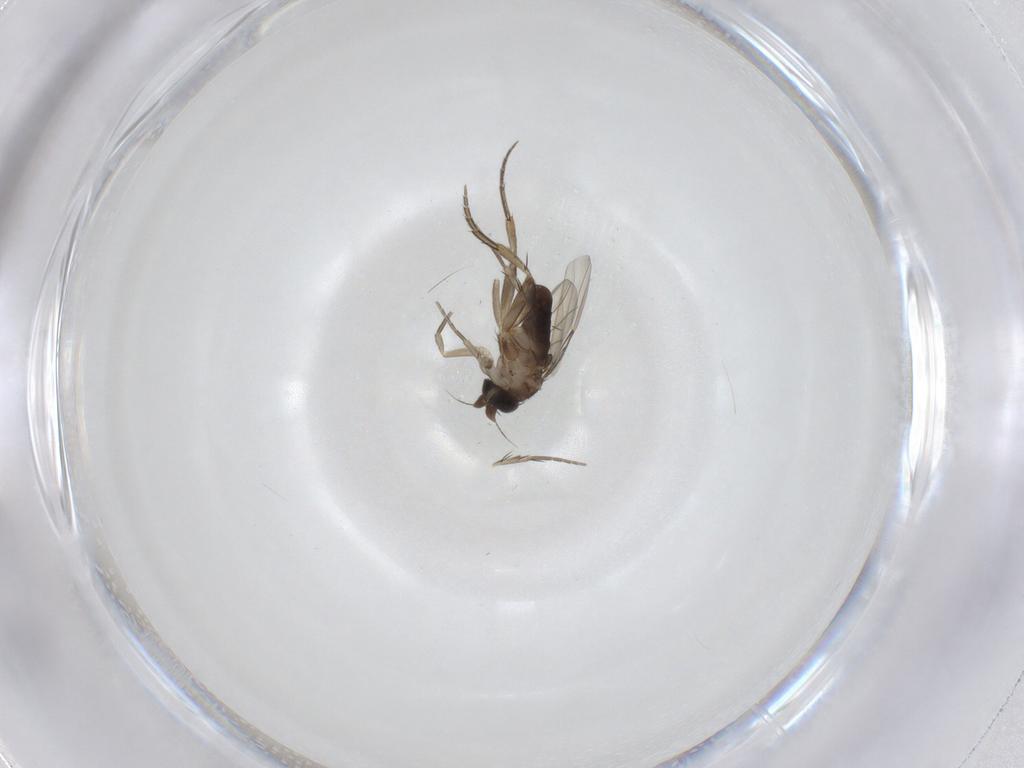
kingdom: Animalia
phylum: Arthropoda
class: Insecta
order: Diptera
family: Phoridae
